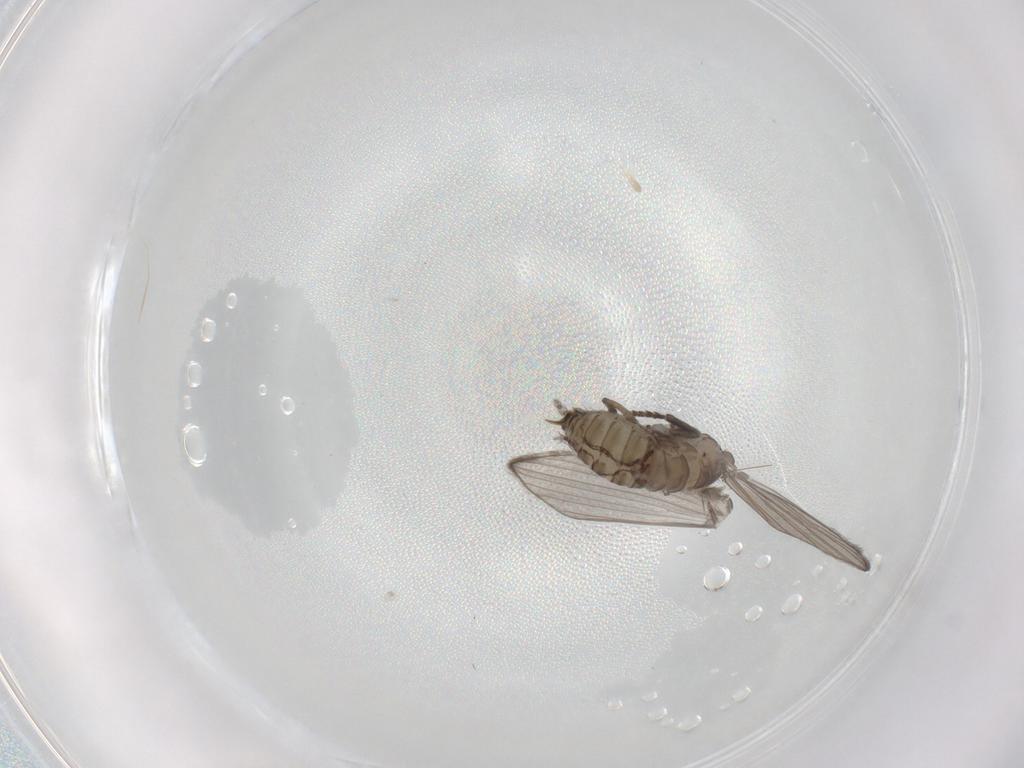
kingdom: Animalia
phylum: Arthropoda
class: Insecta
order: Diptera
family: Psychodidae
